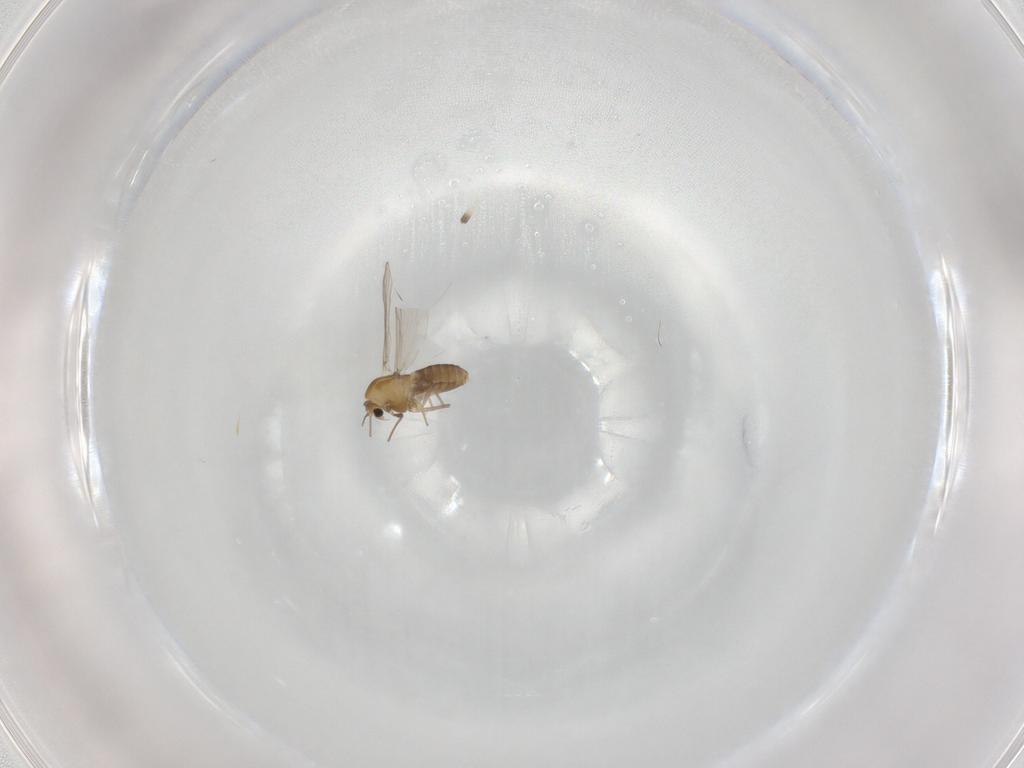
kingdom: Animalia
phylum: Arthropoda
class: Insecta
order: Diptera
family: Chironomidae
